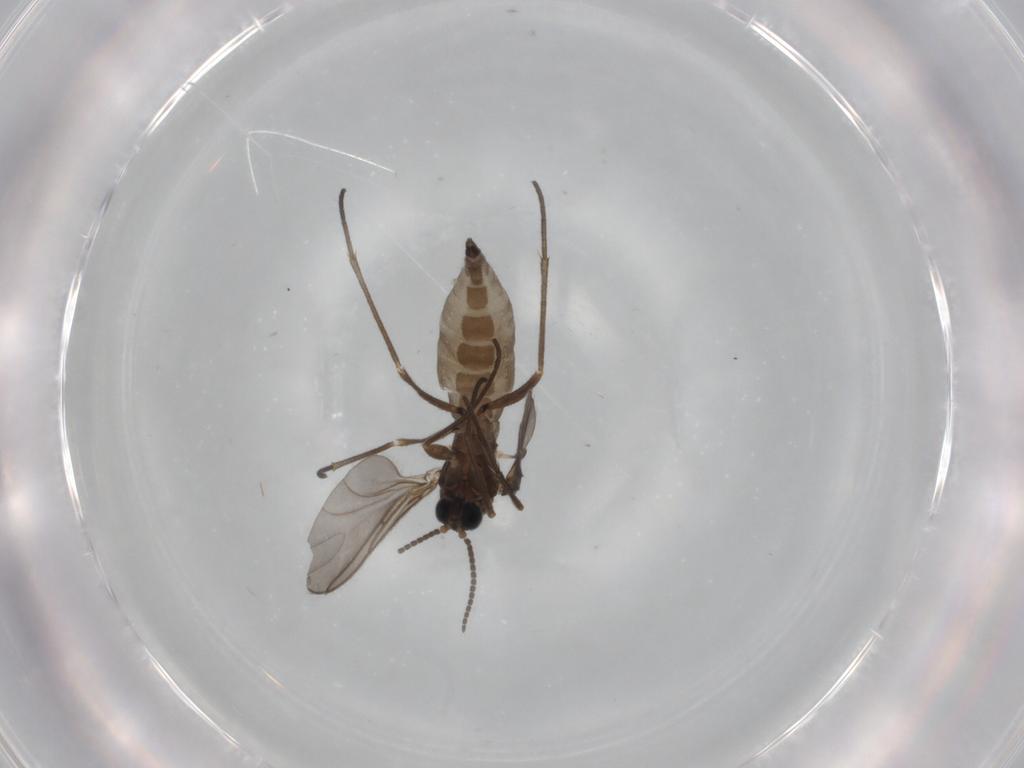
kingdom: Animalia
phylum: Arthropoda
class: Insecta
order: Diptera
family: Sciaridae
